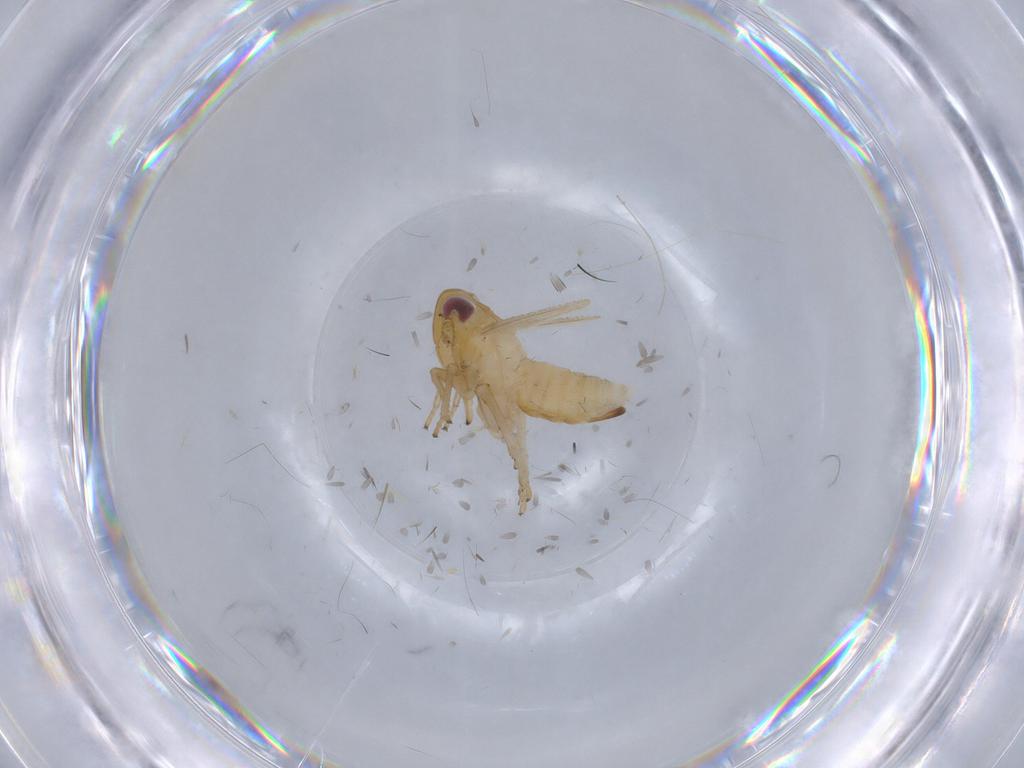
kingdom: Animalia
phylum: Arthropoda
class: Insecta
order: Hemiptera
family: Delphacidae
